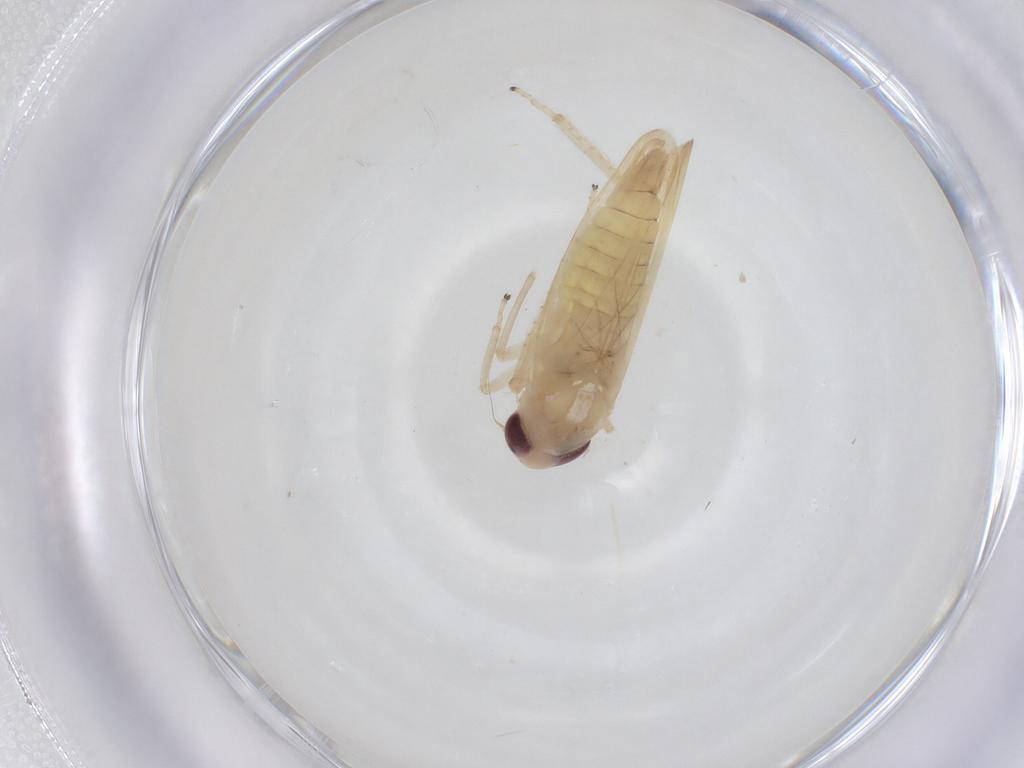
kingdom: Animalia
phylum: Arthropoda
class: Insecta
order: Hemiptera
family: Cicadellidae
